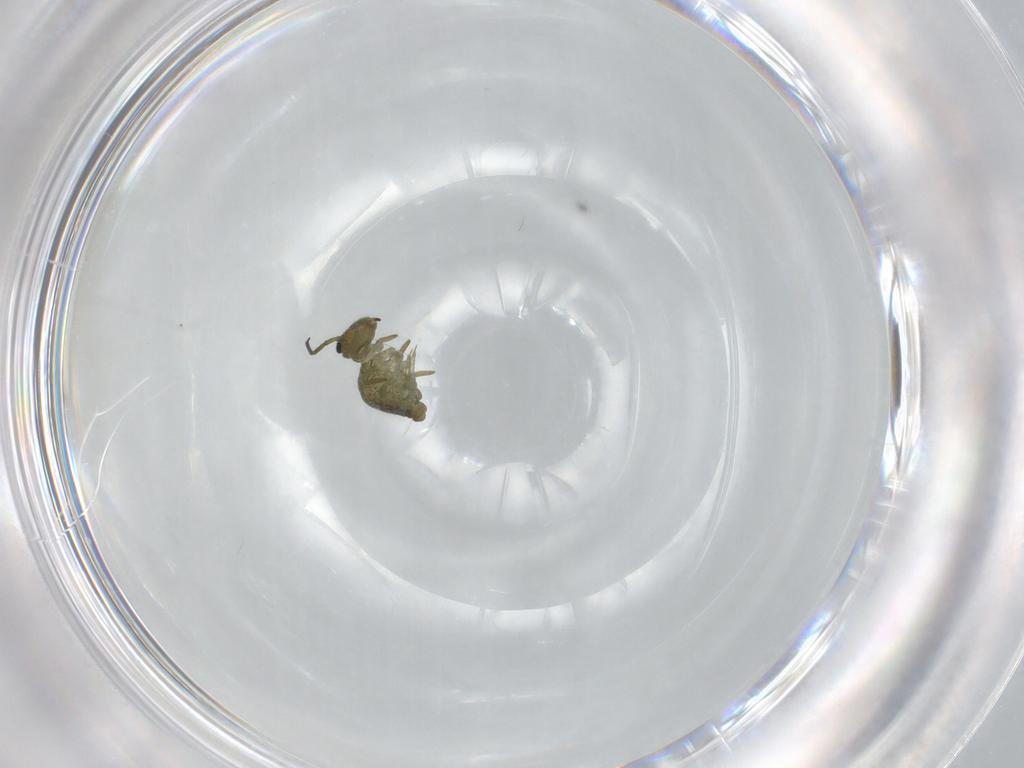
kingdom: Animalia
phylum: Arthropoda
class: Collembola
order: Symphypleona
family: Sminthuridae
